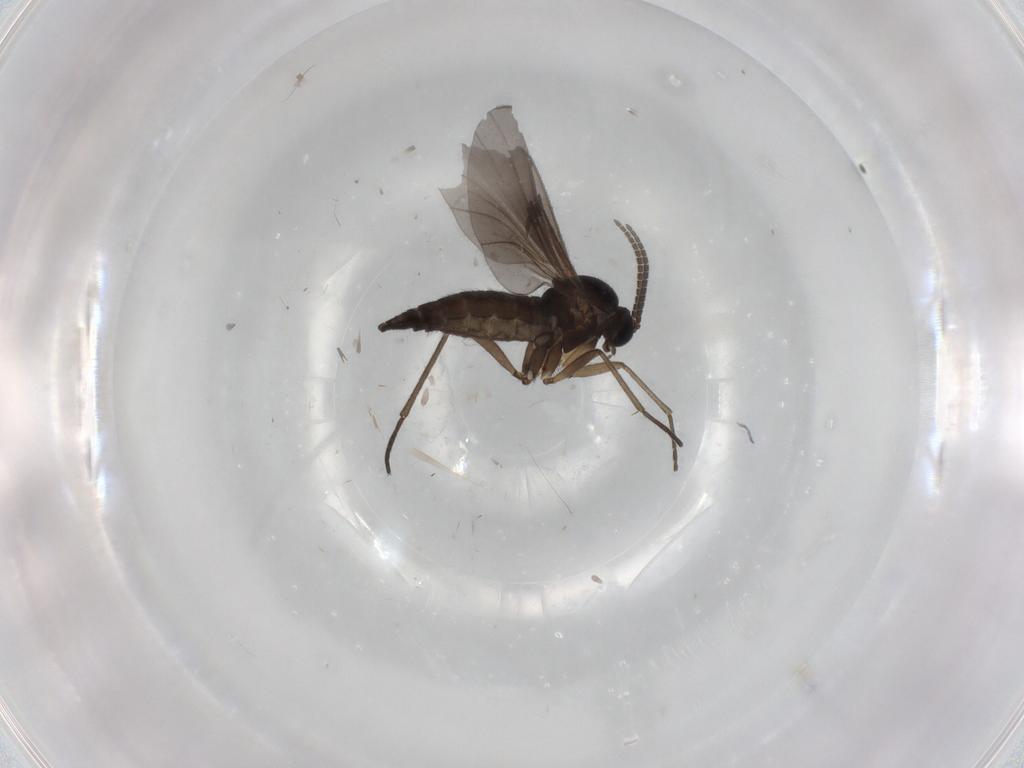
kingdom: Animalia
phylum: Arthropoda
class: Insecta
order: Diptera
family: Sciaridae
